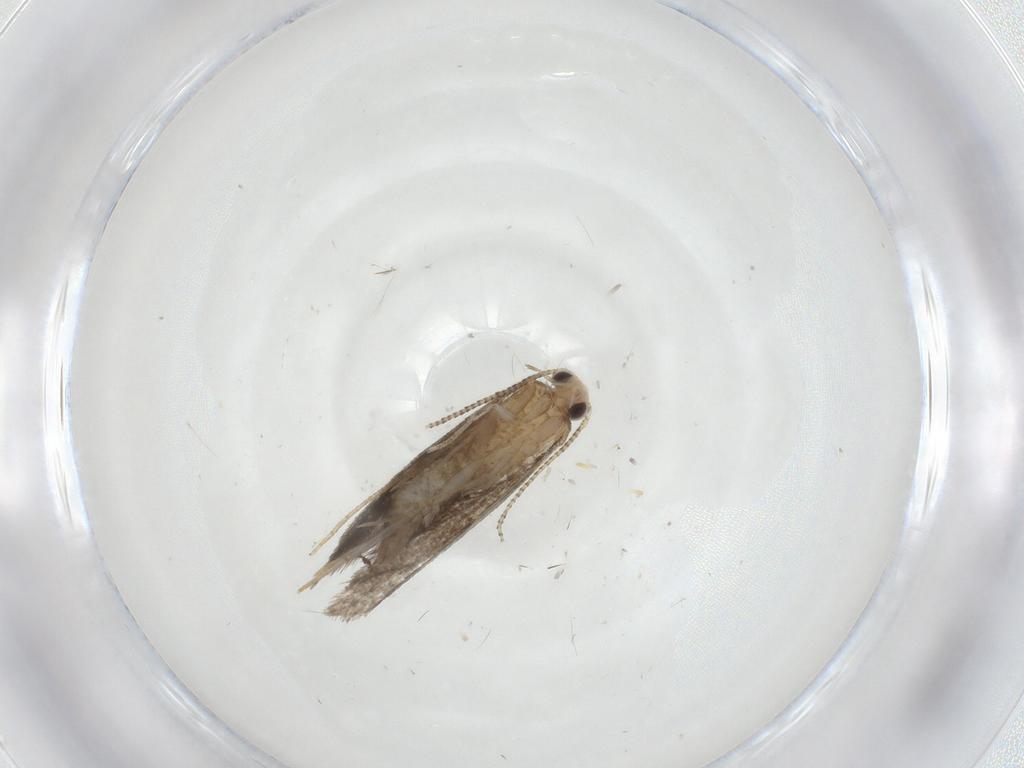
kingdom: Animalia
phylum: Arthropoda
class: Insecta
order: Lepidoptera
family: Tineidae
